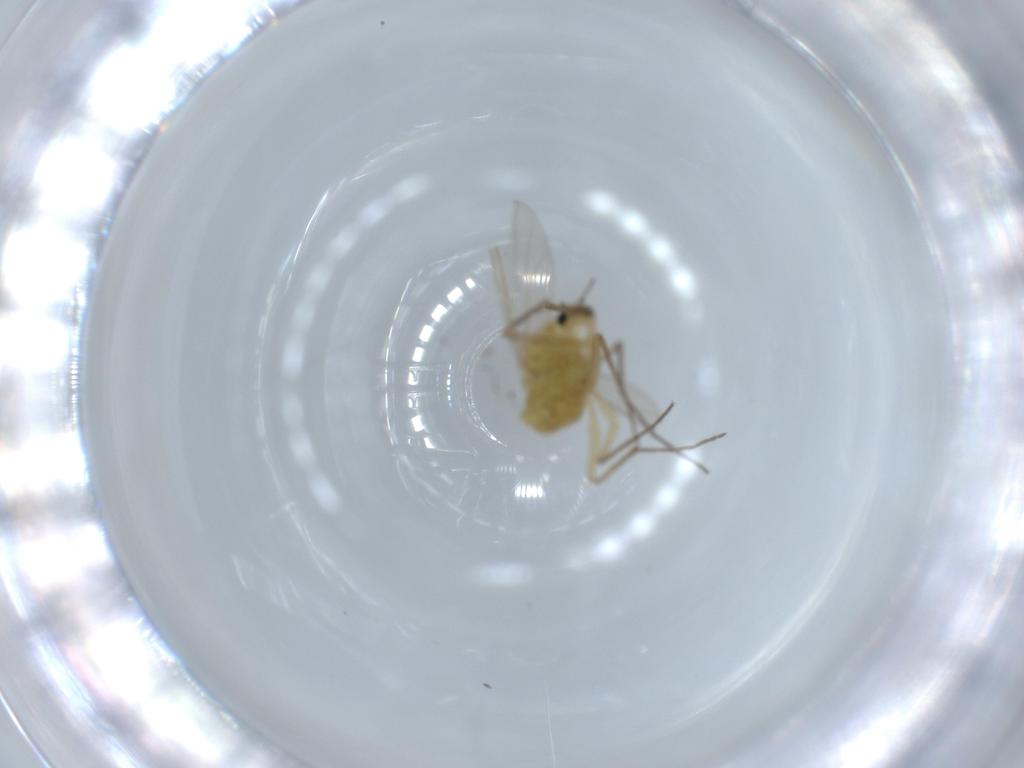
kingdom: Animalia
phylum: Arthropoda
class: Insecta
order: Diptera
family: Chironomidae
